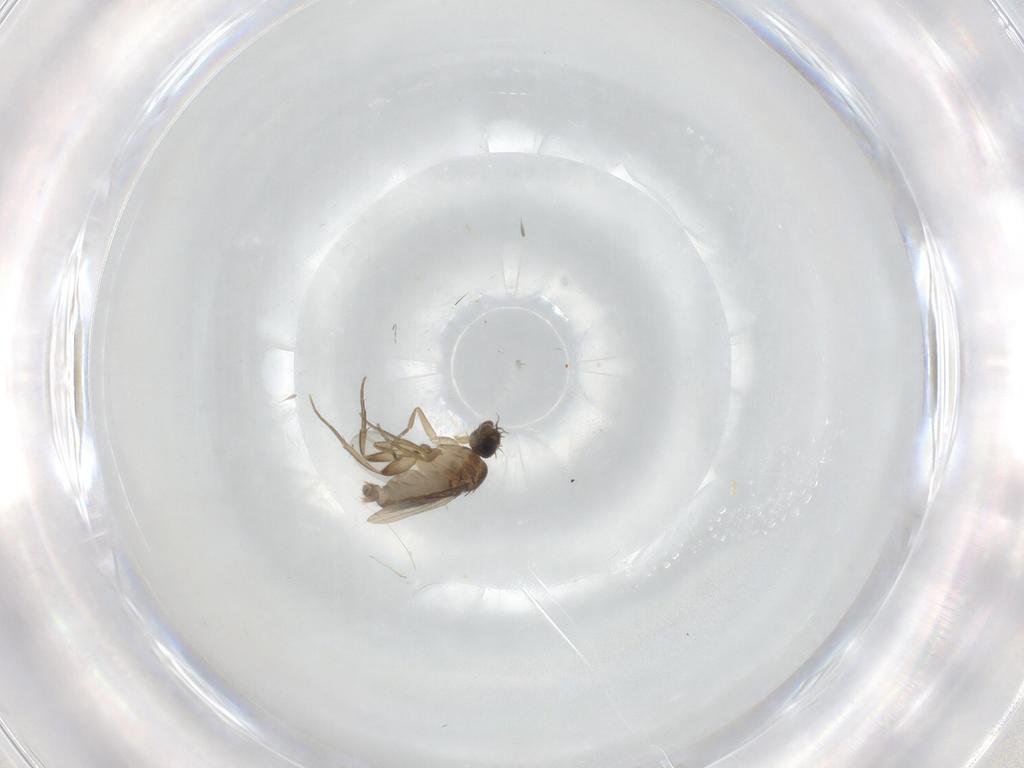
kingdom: Animalia
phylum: Arthropoda
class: Insecta
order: Diptera
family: Phoridae
